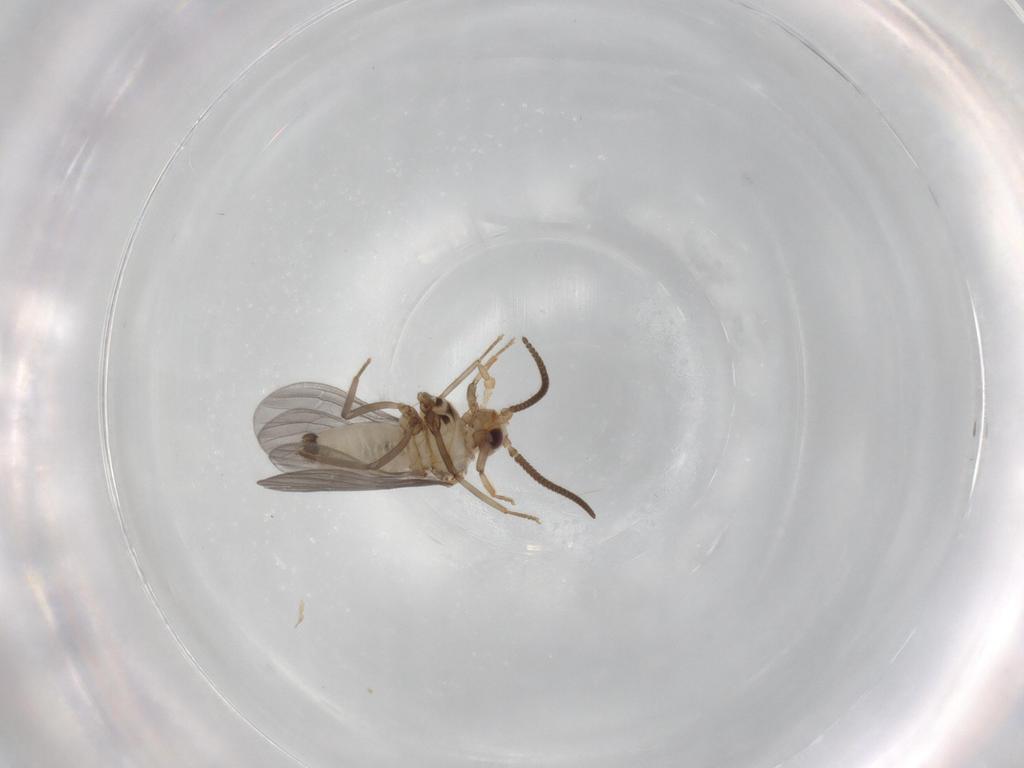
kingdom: Animalia
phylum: Arthropoda
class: Insecta
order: Neuroptera
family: Coniopterygidae
